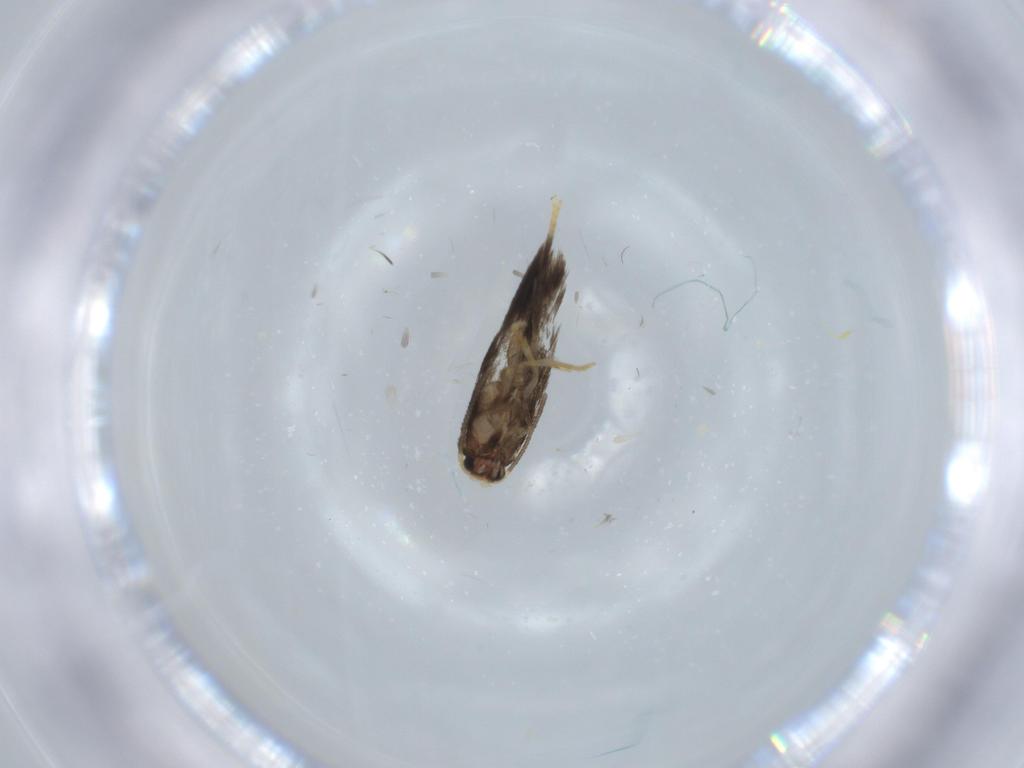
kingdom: Animalia
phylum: Arthropoda
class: Insecta
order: Lepidoptera
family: Nepticulidae
